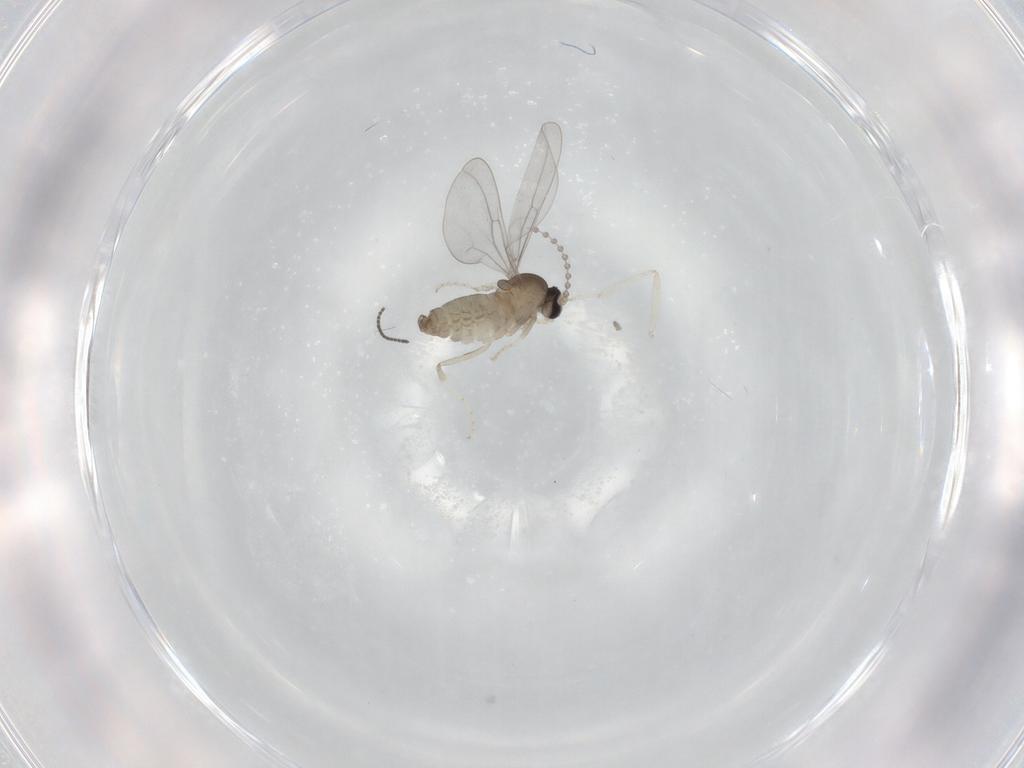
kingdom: Animalia
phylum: Arthropoda
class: Insecta
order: Diptera
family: Cecidomyiidae
